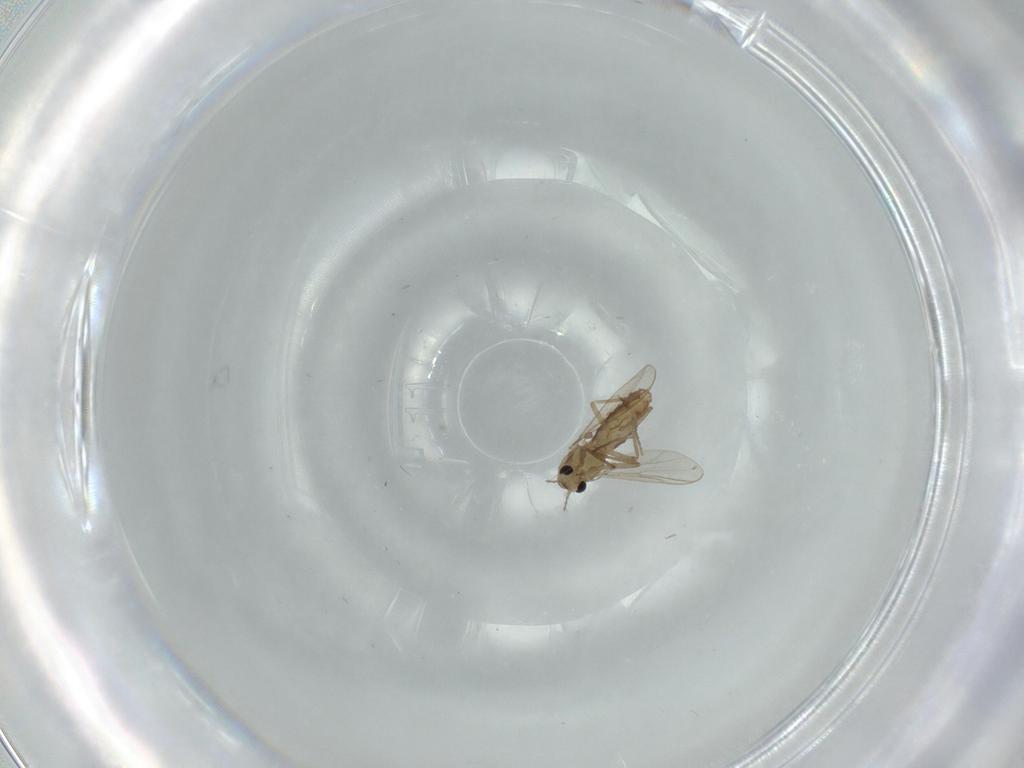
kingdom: Animalia
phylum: Arthropoda
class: Insecta
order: Diptera
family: Chironomidae
